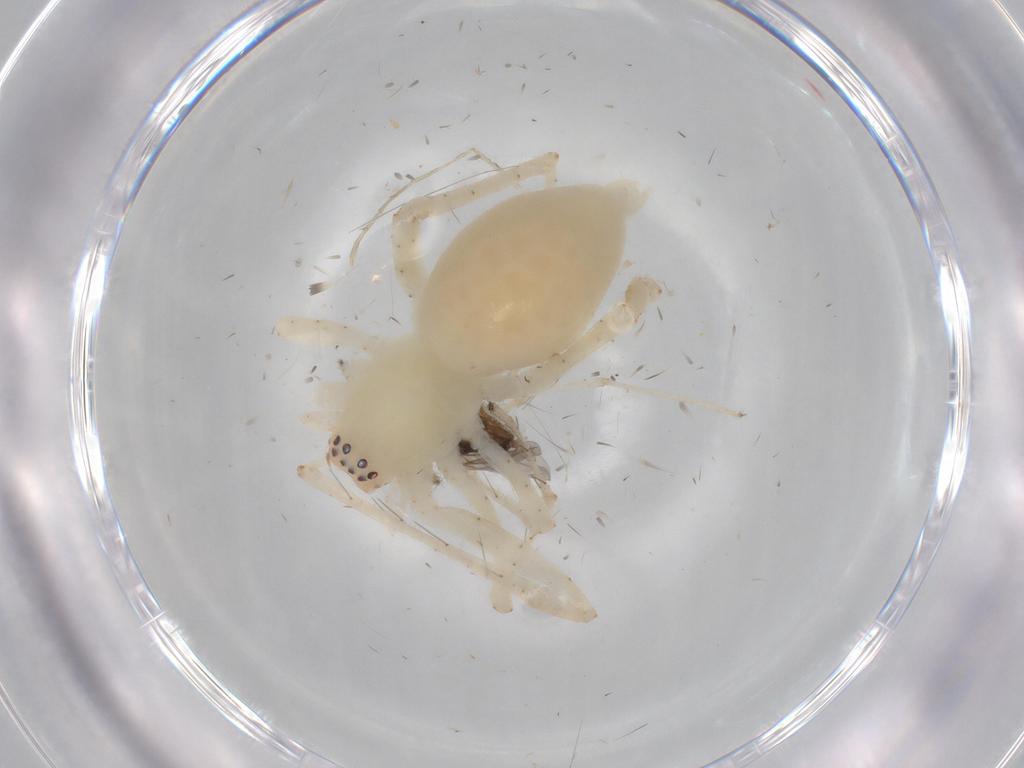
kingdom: Animalia
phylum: Arthropoda
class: Arachnida
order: Araneae
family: Anyphaenidae
